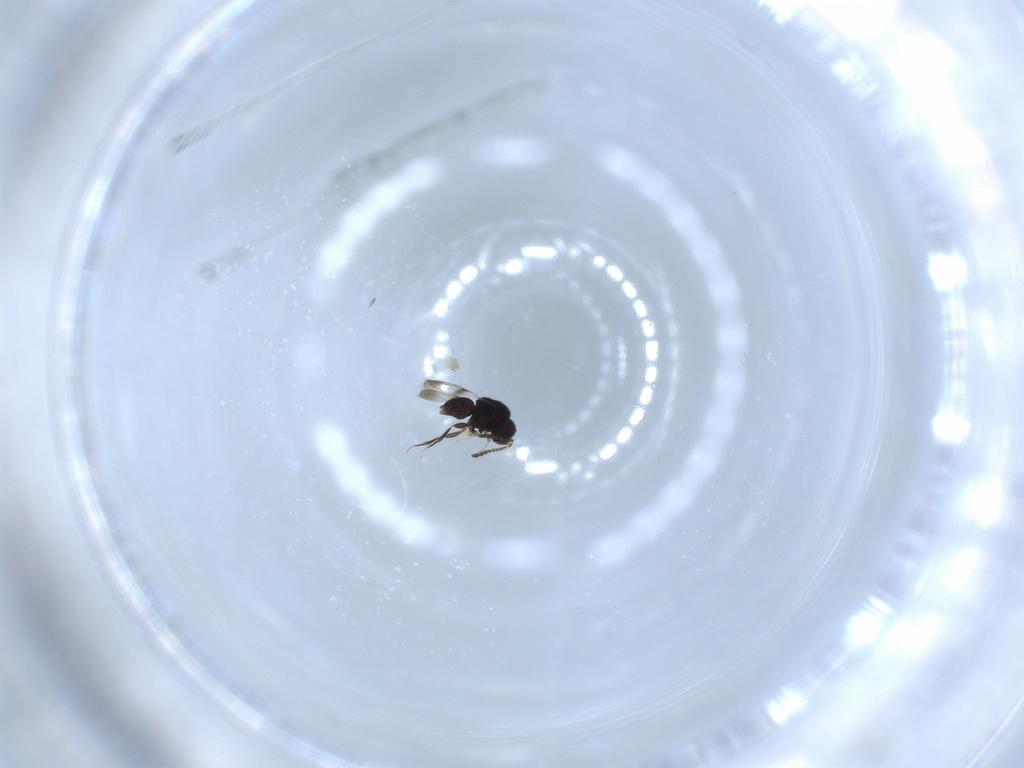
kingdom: Animalia
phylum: Arthropoda
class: Insecta
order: Hymenoptera
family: Ceraphronidae
